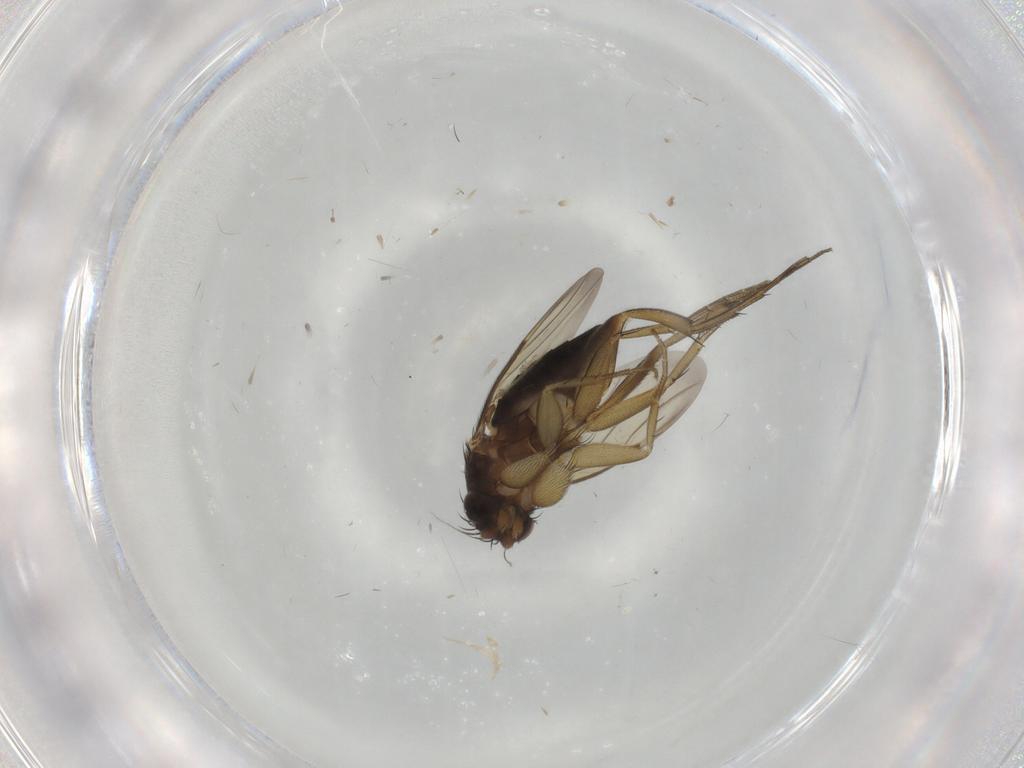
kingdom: Animalia
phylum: Arthropoda
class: Insecta
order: Diptera
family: Phoridae
